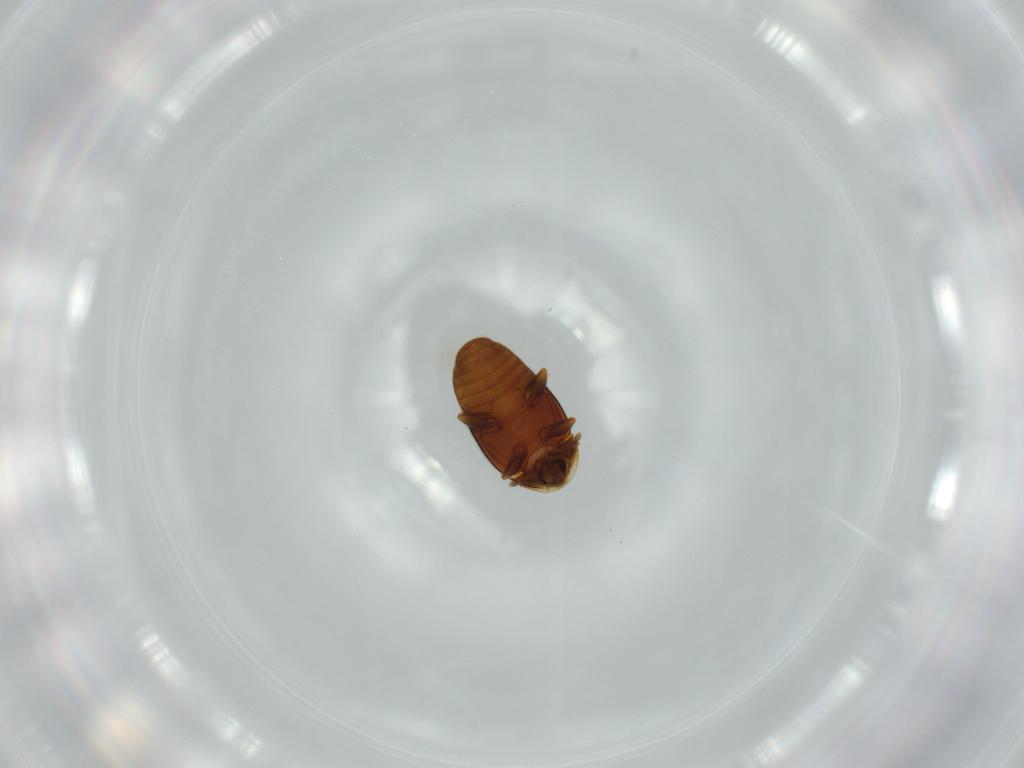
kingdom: Animalia
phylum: Arthropoda
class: Insecta
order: Coleoptera
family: Corylophidae
